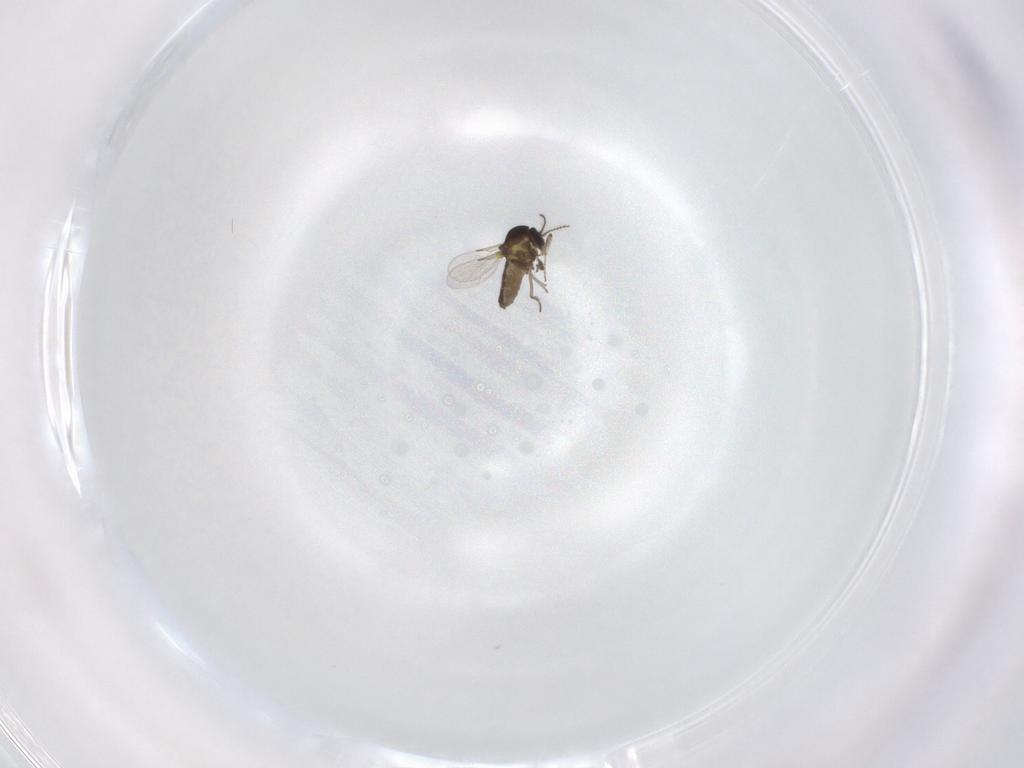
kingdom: Animalia
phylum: Arthropoda
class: Insecta
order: Diptera
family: Ceratopogonidae
